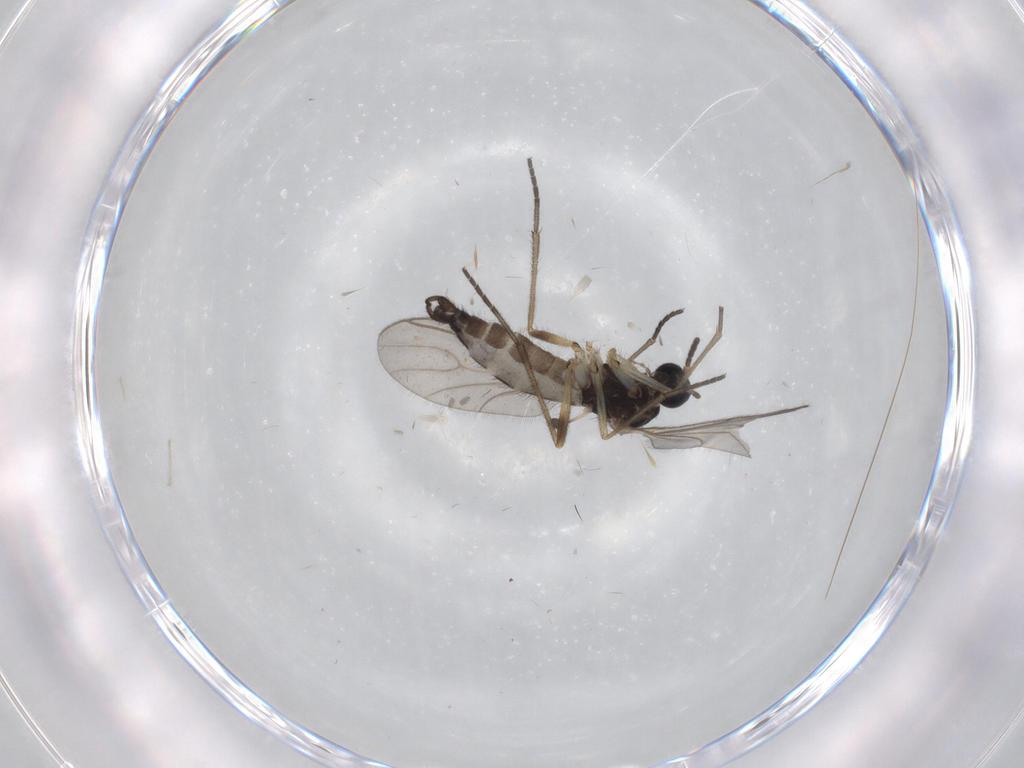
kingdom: Animalia
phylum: Arthropoda
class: Insecta
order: Diptera
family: Sciaridae
